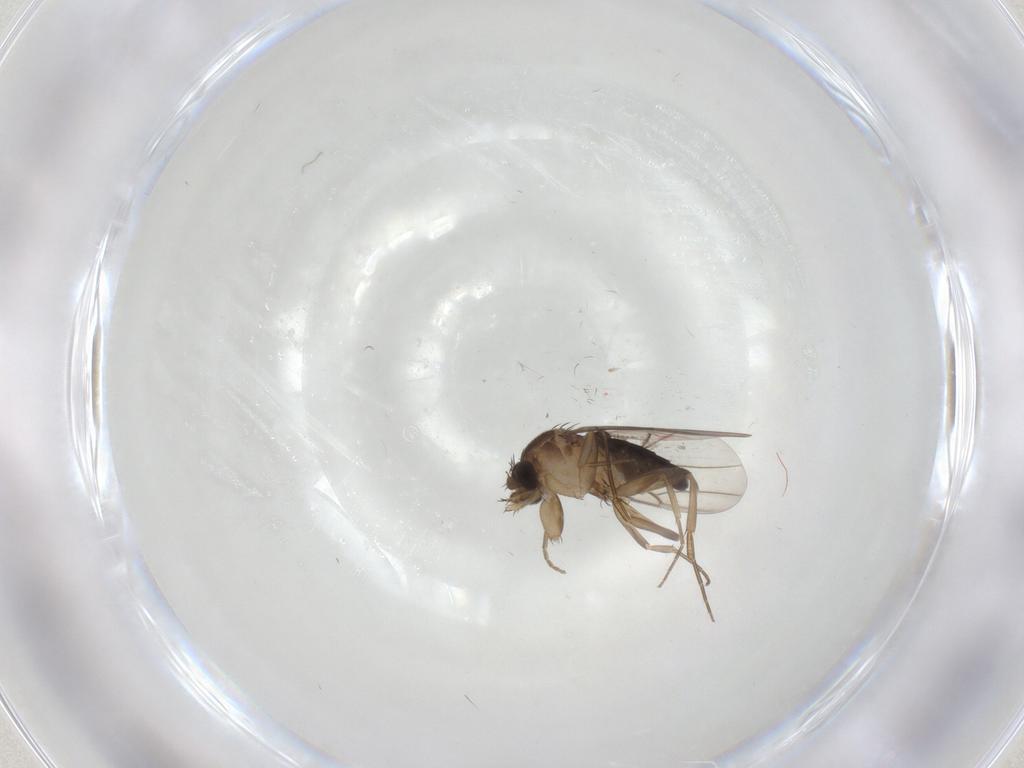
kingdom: Animalia
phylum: Arthropoda
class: Insecta
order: Diptera
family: Phoridae
